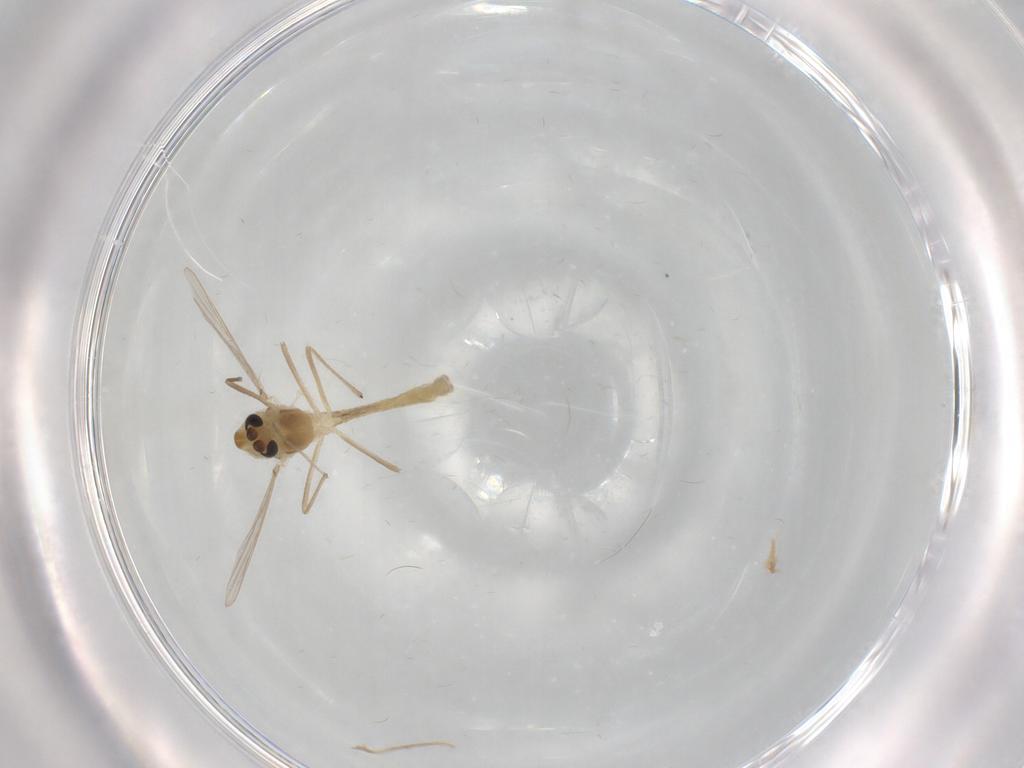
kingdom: Animalia
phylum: Arthropoda
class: Insecta
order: Diptera
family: Chironomidae
